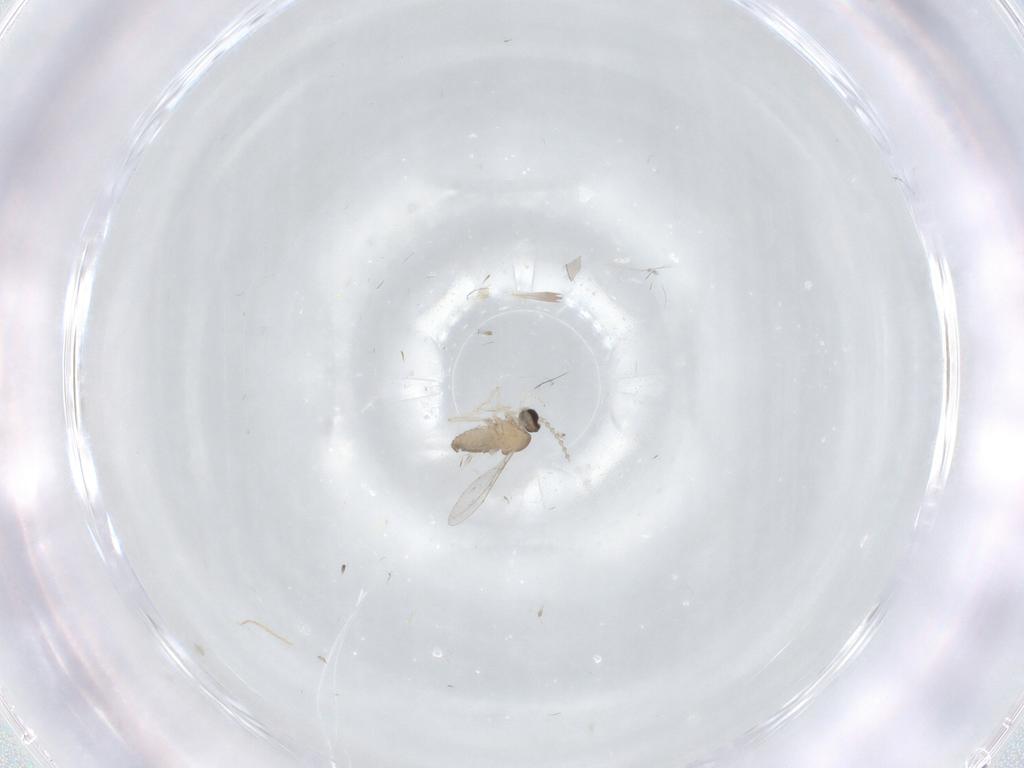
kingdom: Animalia
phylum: Arthropoda
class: Insecta
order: Diptera
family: Cecidomyiidae
